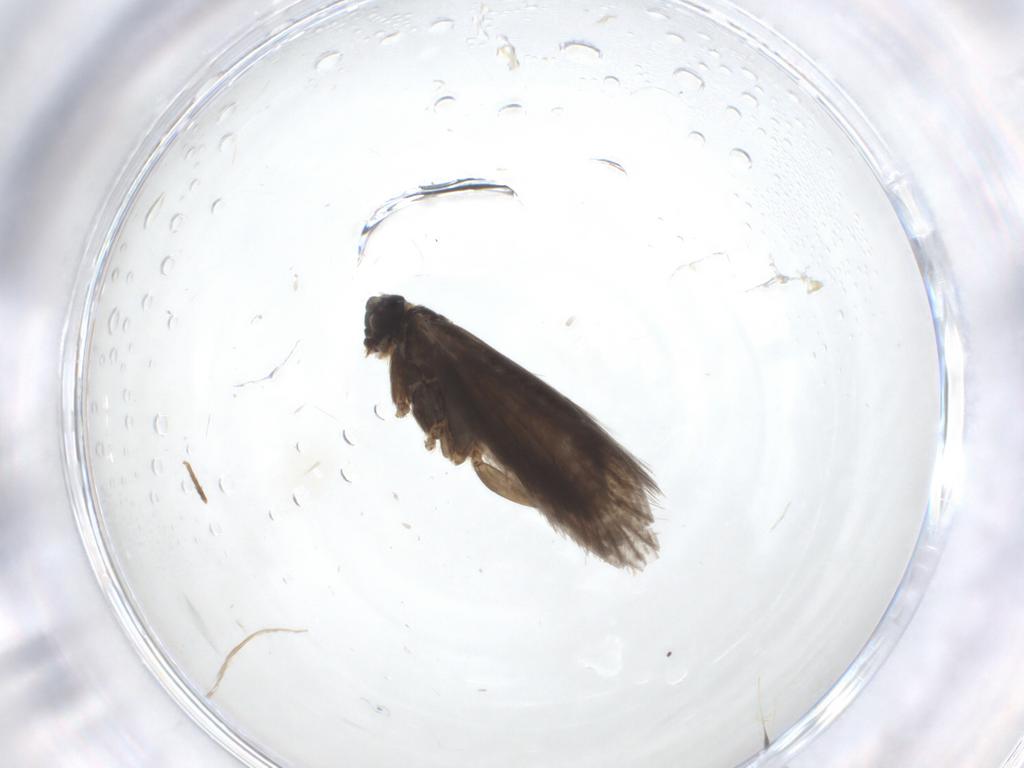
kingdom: Animalia
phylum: Arthropoda
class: Insecta
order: Lepidoptera
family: Micropterigidae
